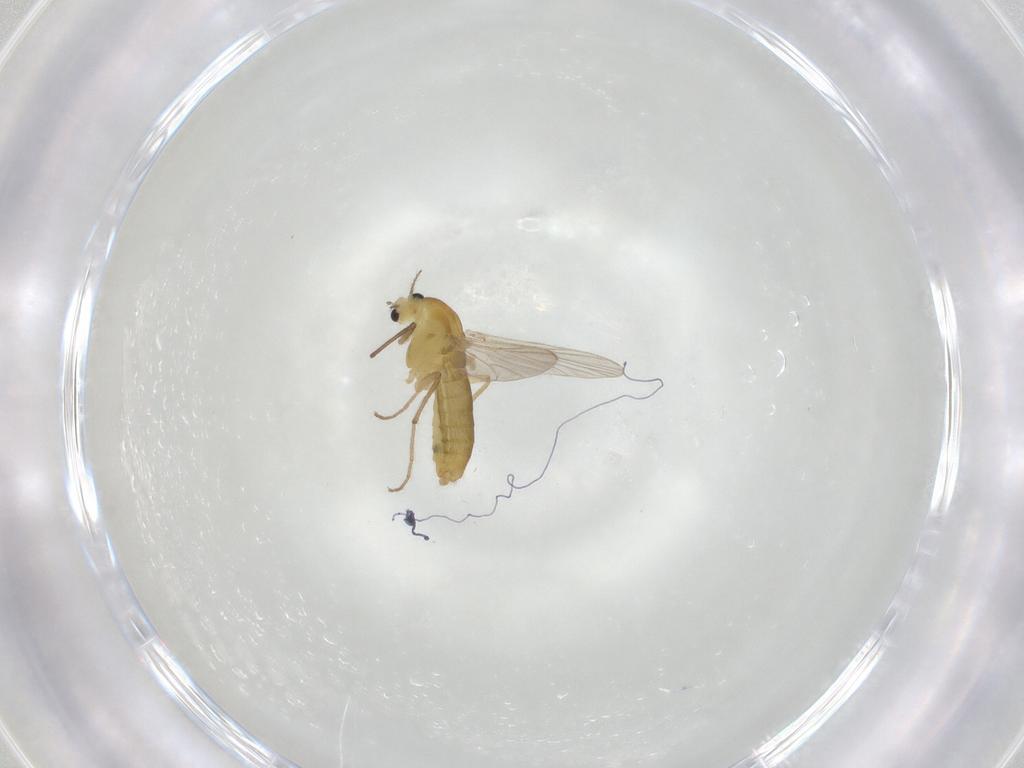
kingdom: Animalia
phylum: Arthropoda
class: Insecta
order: Diptera
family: Chironomidae
